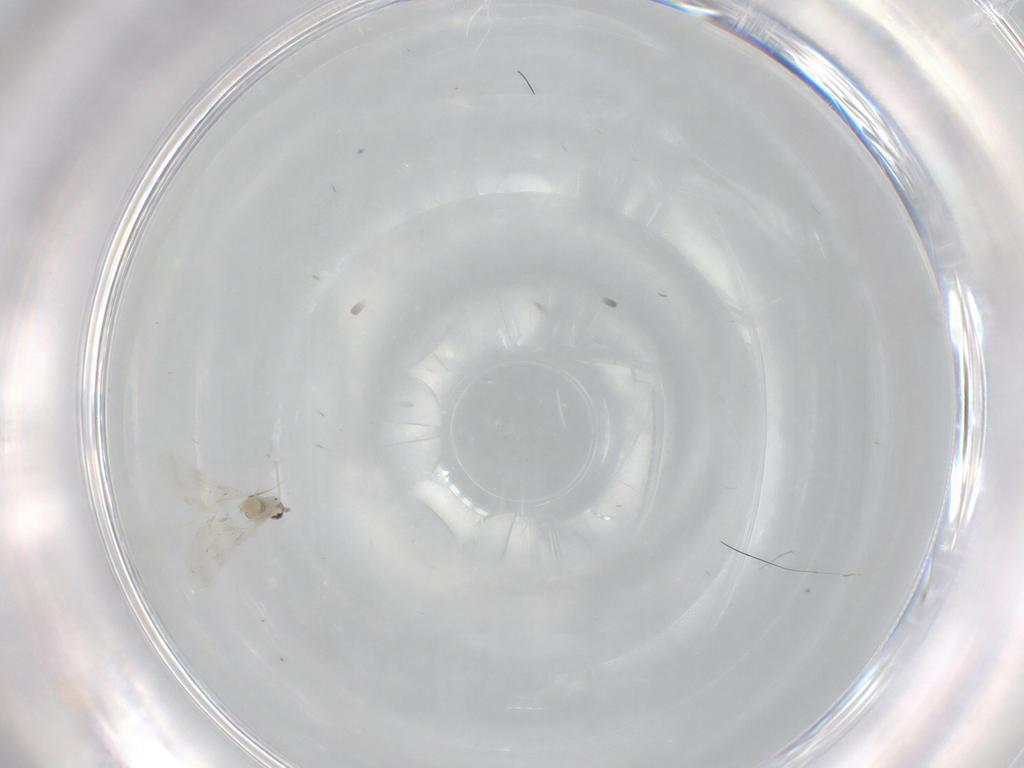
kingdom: Animalia
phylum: Arthropoda
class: Insecta
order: Diptera
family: Cecidomyiidae
